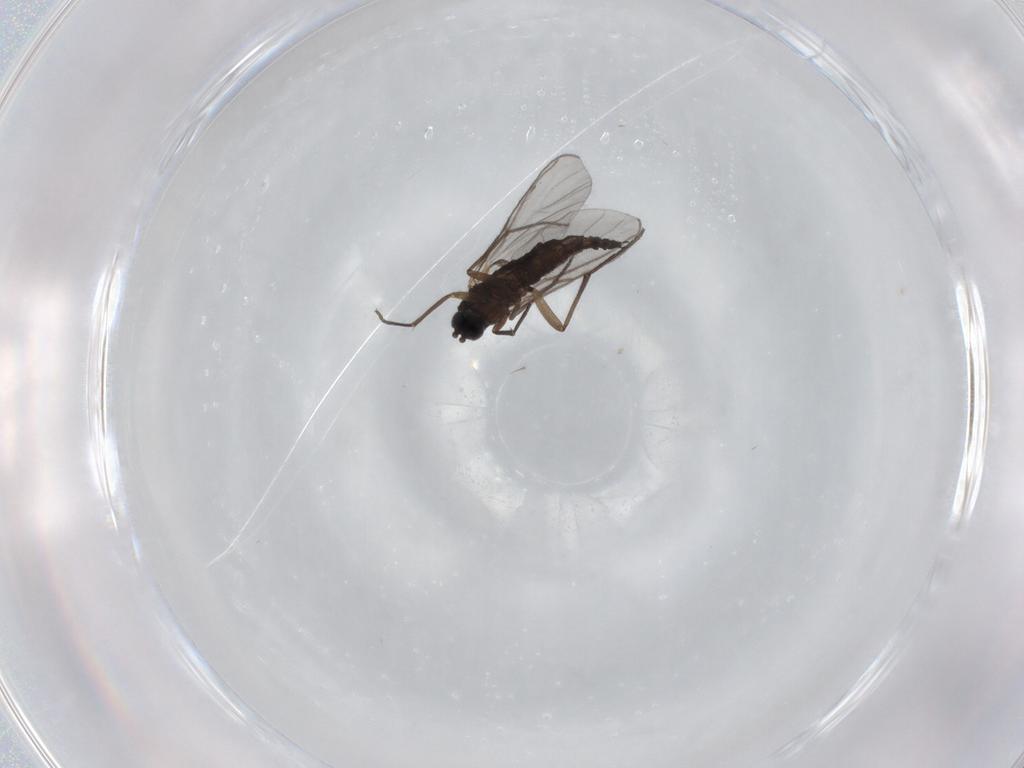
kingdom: Animalia
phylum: Arthropoda
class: Insecta
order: Diptera
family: Sciaridae
